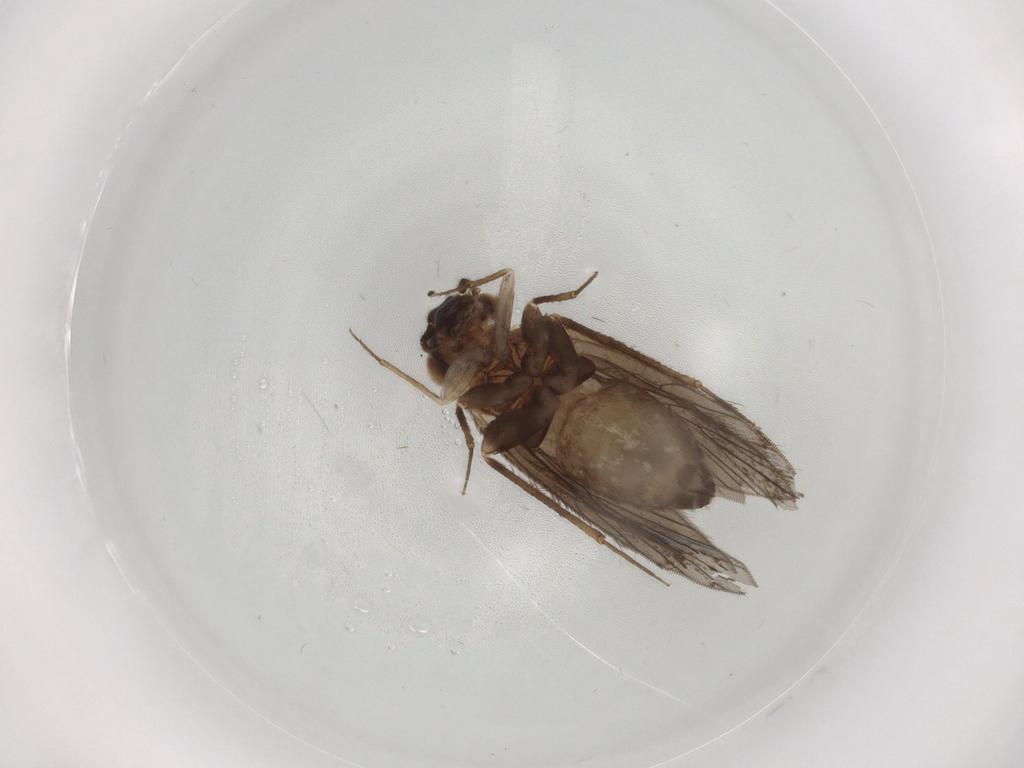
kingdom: Animalia
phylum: Arthropoda
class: Insecta
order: Psocodea
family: Lepidopsocidae
